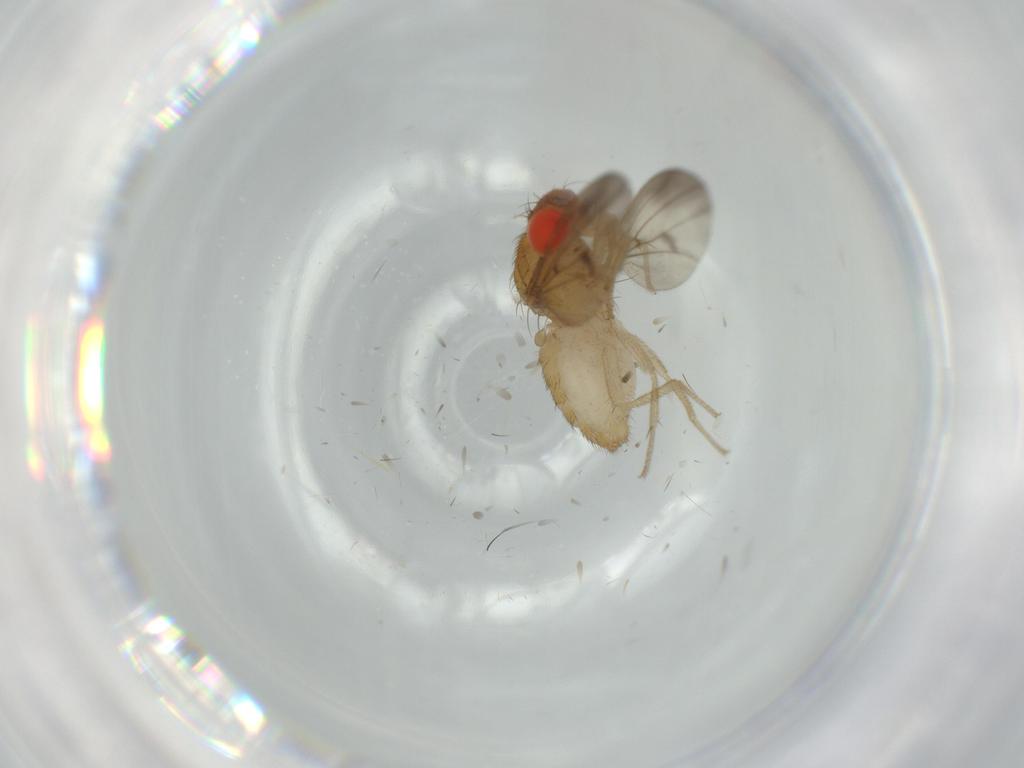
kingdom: Animalia
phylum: Arthropoda
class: Insecta
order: Diptera
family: Drosophilidae
